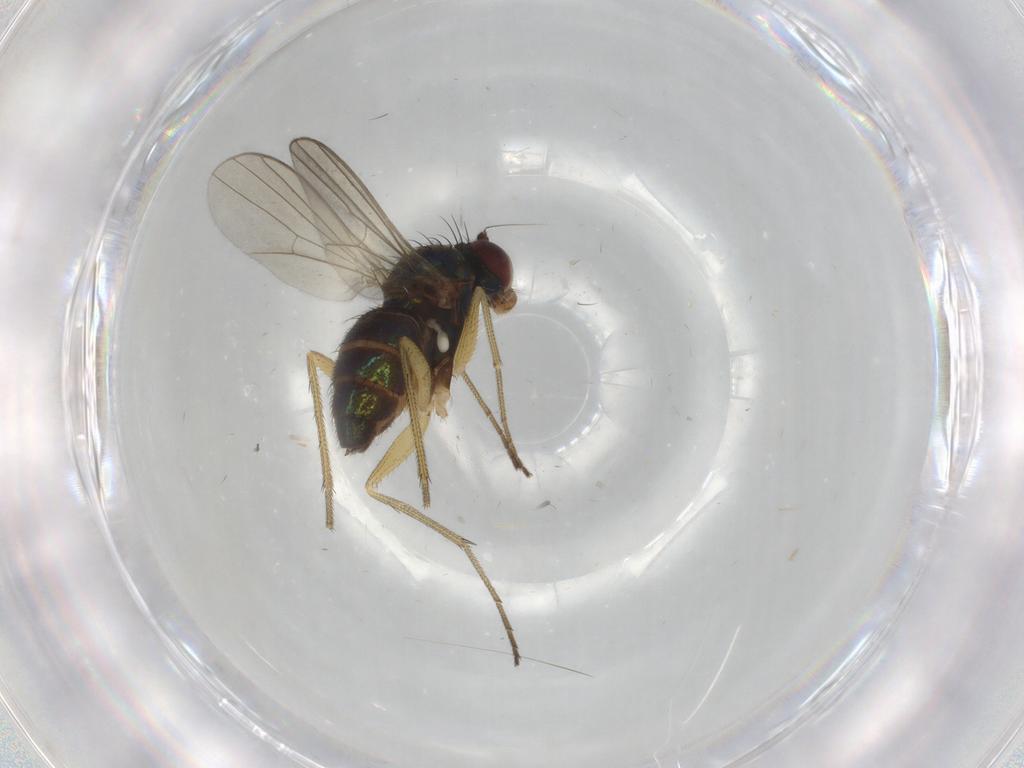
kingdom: Animalia
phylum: Arthropoda
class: Insecta
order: Diptera
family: Dolichopodidae
